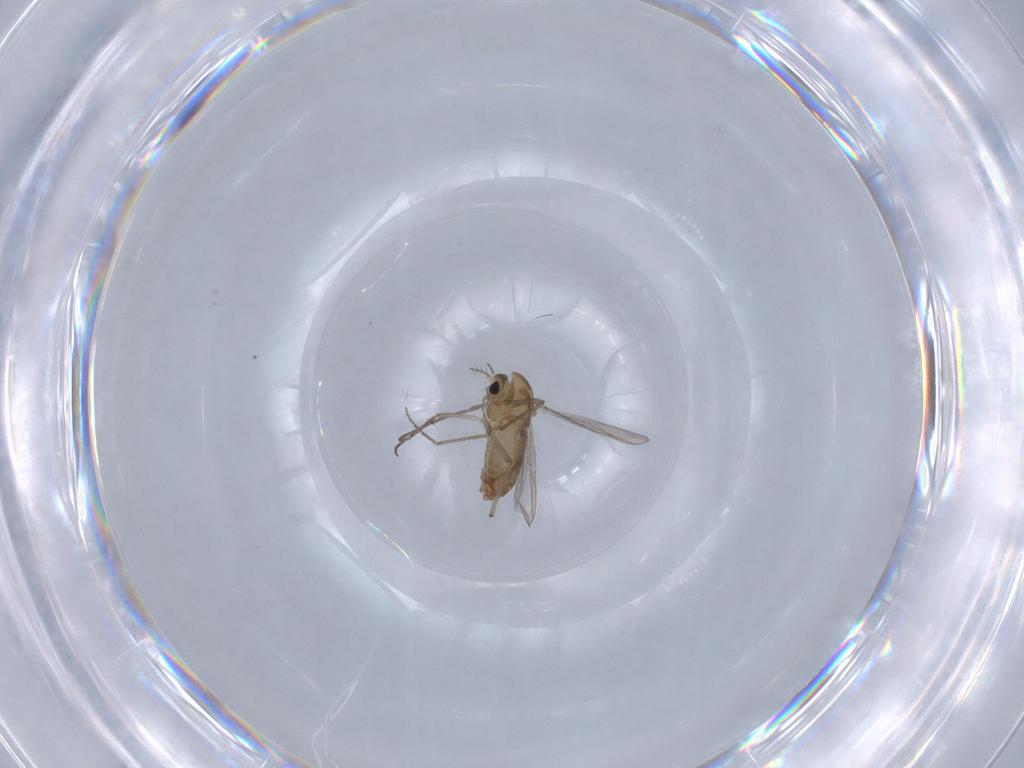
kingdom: Animalia
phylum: Arthropoda
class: Insecta
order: Diptera
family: Chironomidae
